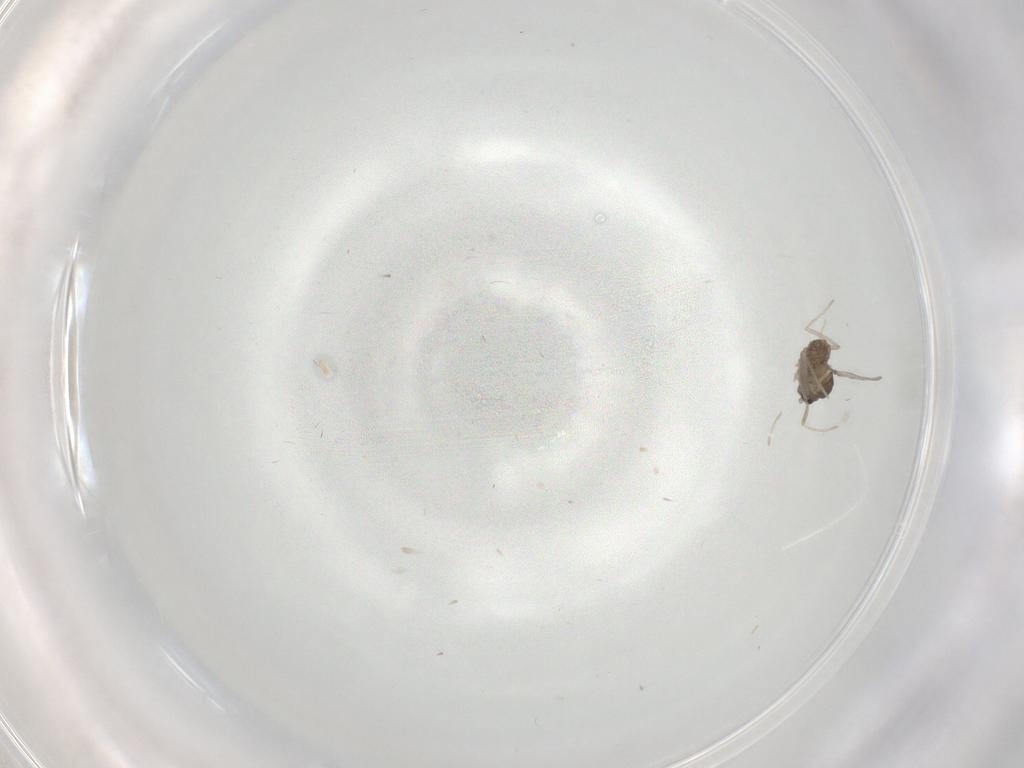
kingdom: Animalia
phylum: Arthropoda
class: Insecta
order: Diptera
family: Cecidomyiidae
